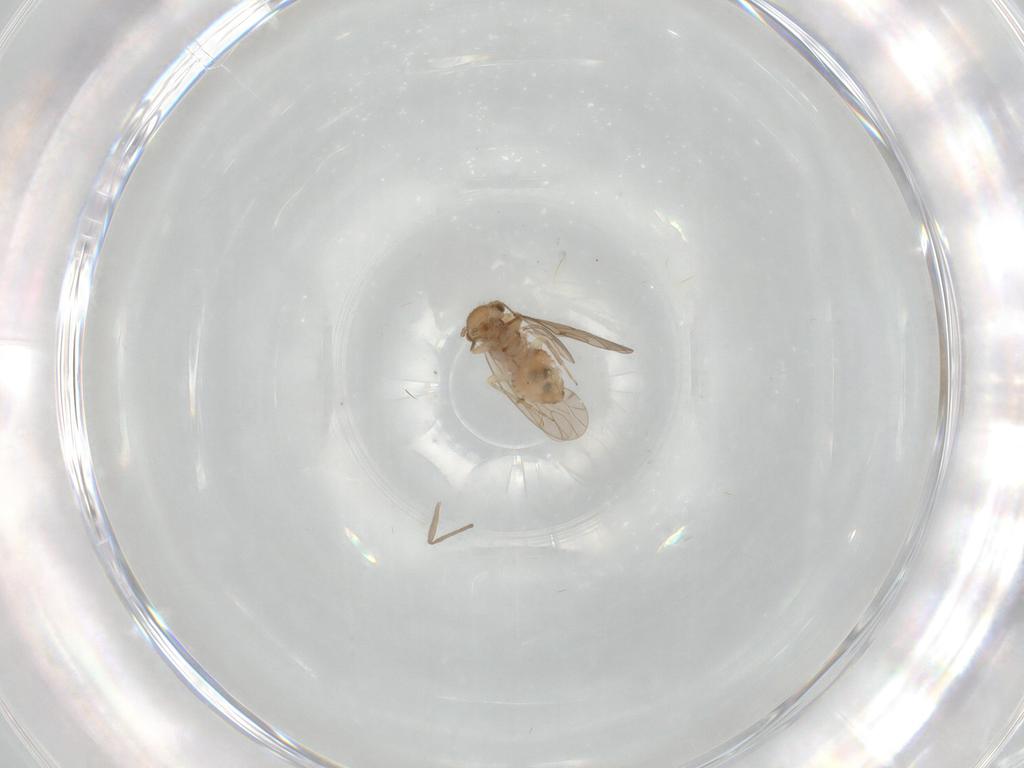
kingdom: Animalia
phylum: Arthropoda
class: Insecta
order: Psocodea
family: Ectopsocidae
